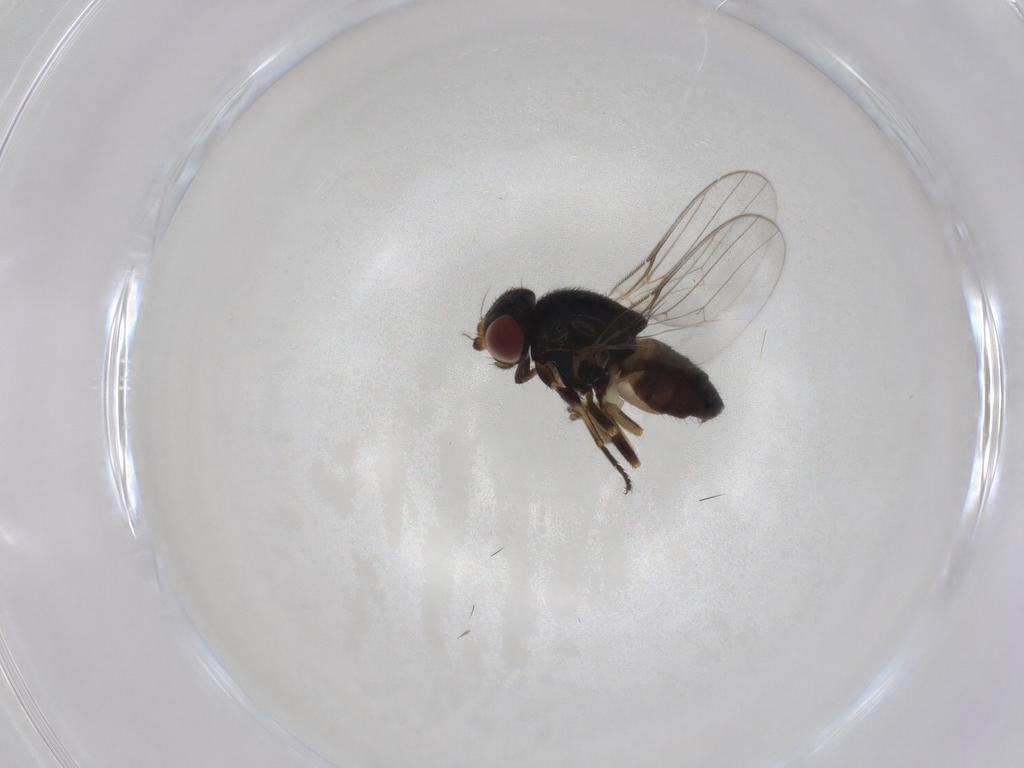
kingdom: Animalia
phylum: Arthropoda
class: Insecta
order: Diptera
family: Chloropidae
